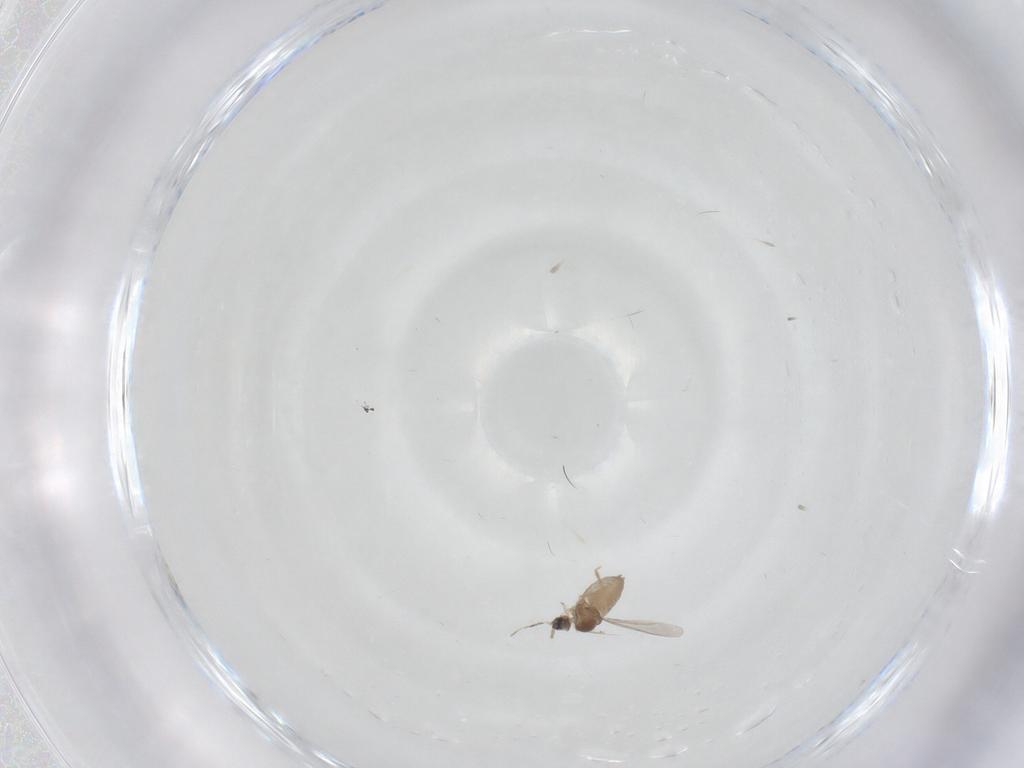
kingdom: Animalia
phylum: Arthropoda
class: Insecta
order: Diptera
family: Cecidomyiidae
